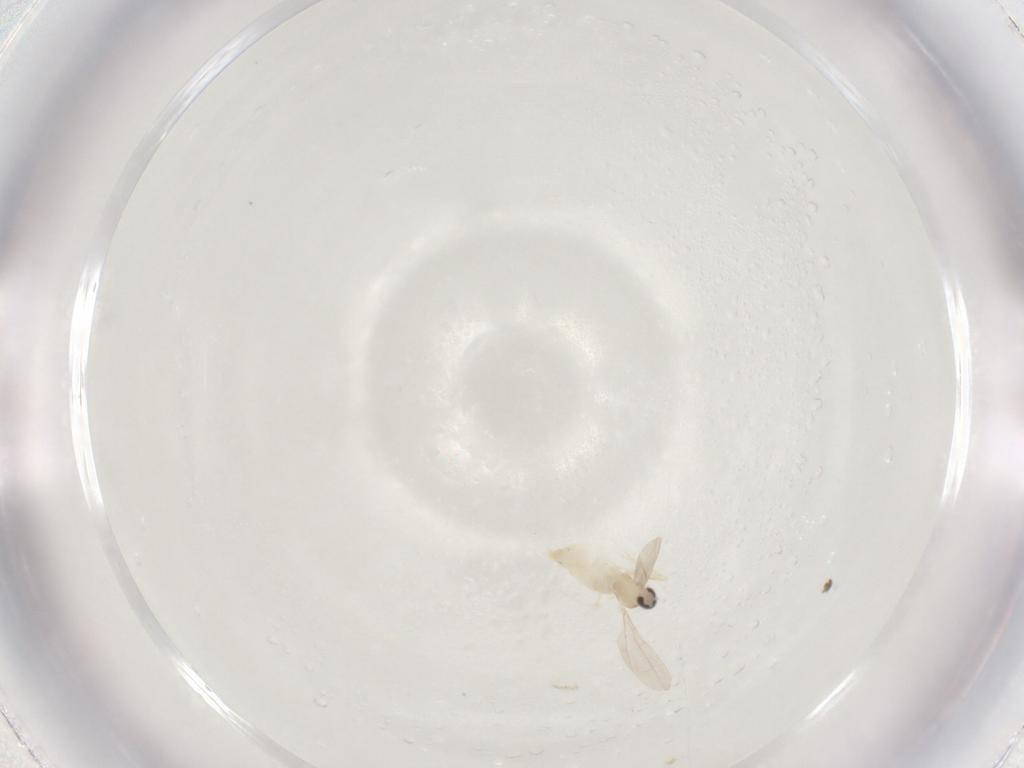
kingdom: Animalia
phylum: Arthropoda
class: Insecta
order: Diptera
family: Cecidomyiidae
